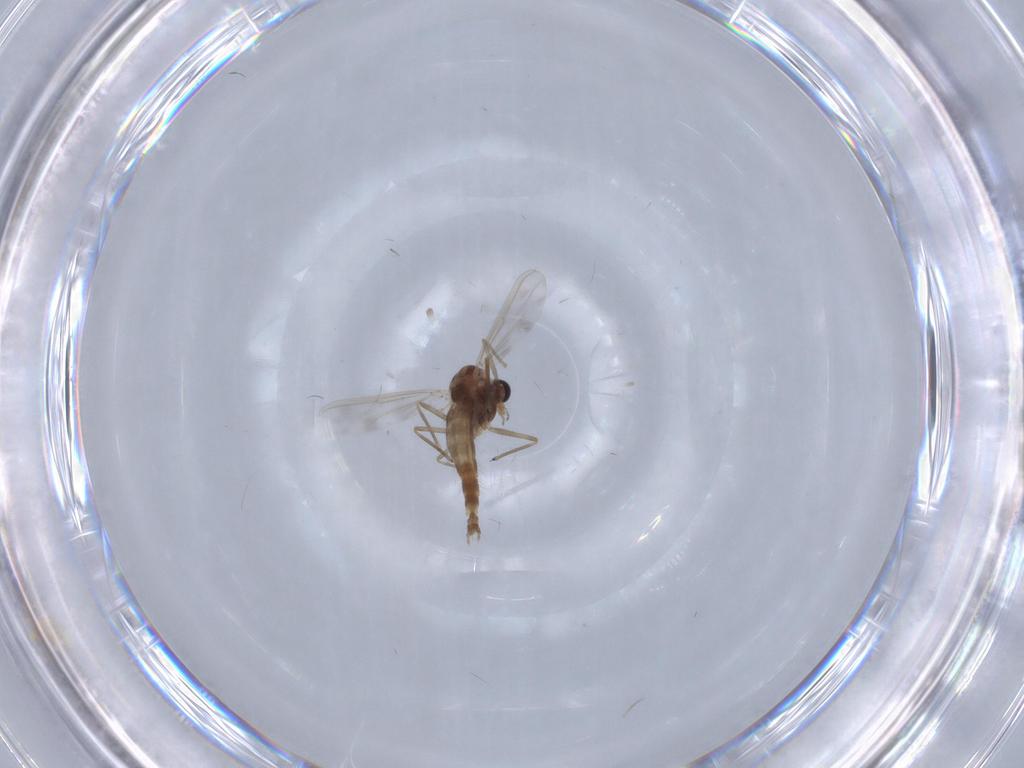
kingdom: Animalia
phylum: Arthropoda
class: Insecta
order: Diptera
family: Chironomidae
